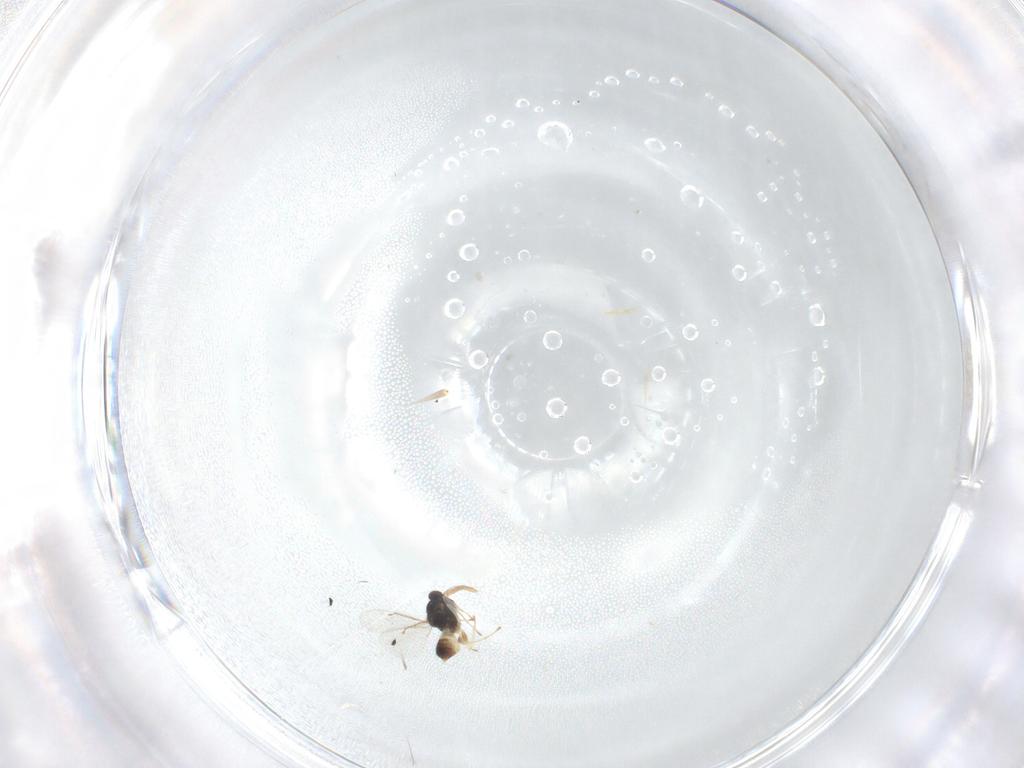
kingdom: Animalia
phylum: Arthropoda
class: Insecta
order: Hymenoptera
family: Eulophidae
